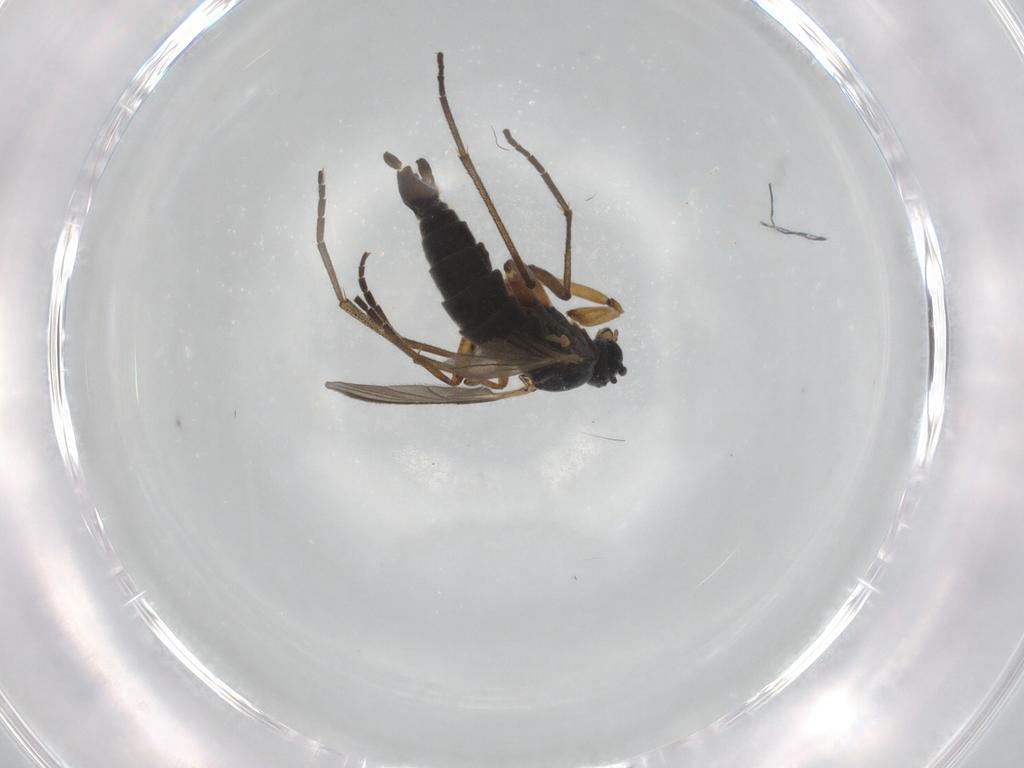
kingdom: Animalia
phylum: Arthropoda
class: Insecta
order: Diptera
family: Sciaridae
